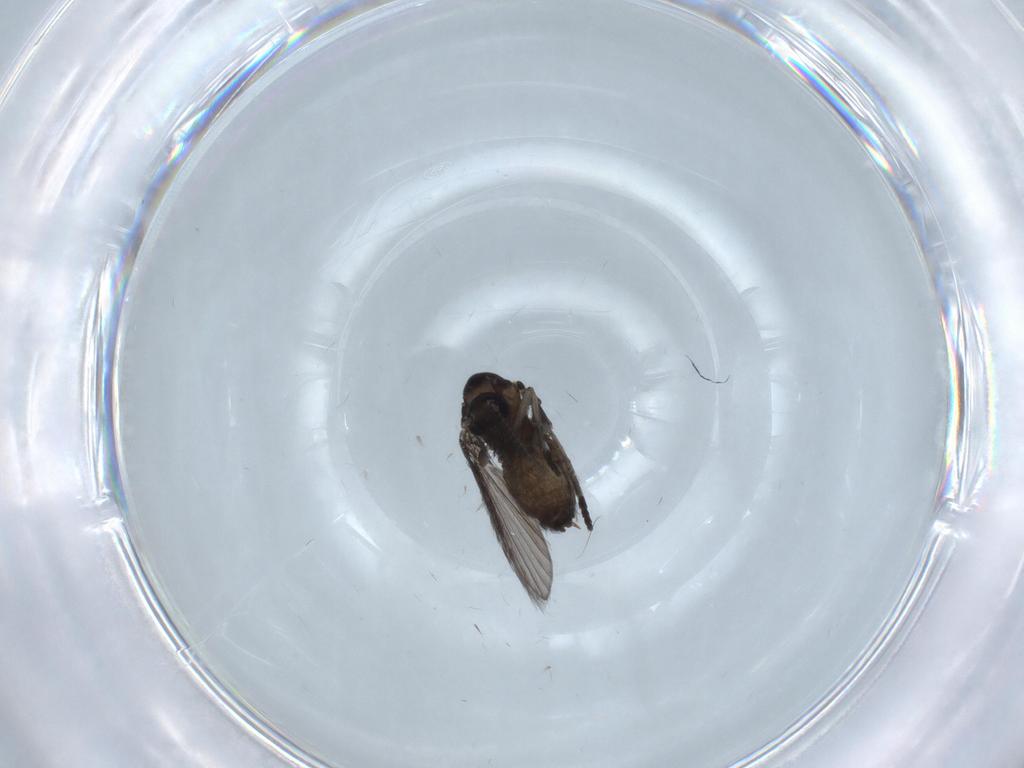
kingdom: Animalia
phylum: Arthropoda
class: Insecta
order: Diptera
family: Psychodidae
